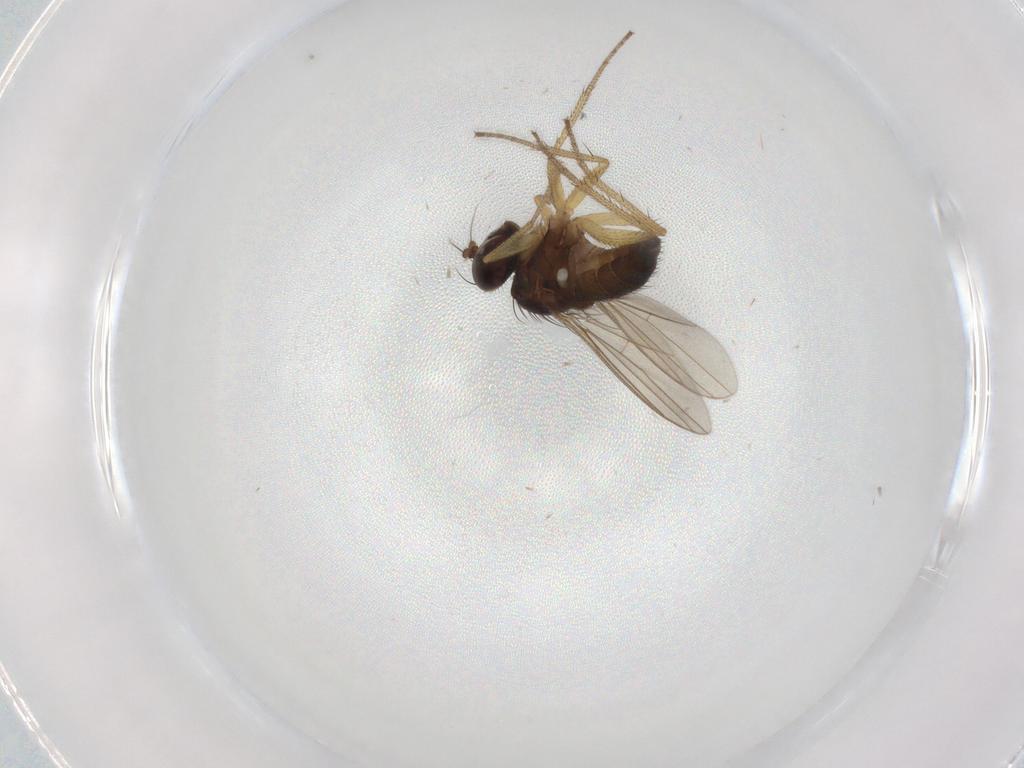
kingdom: Animalia
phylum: Arthropoda
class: Insecta
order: Diptera
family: Dolichopodidae
